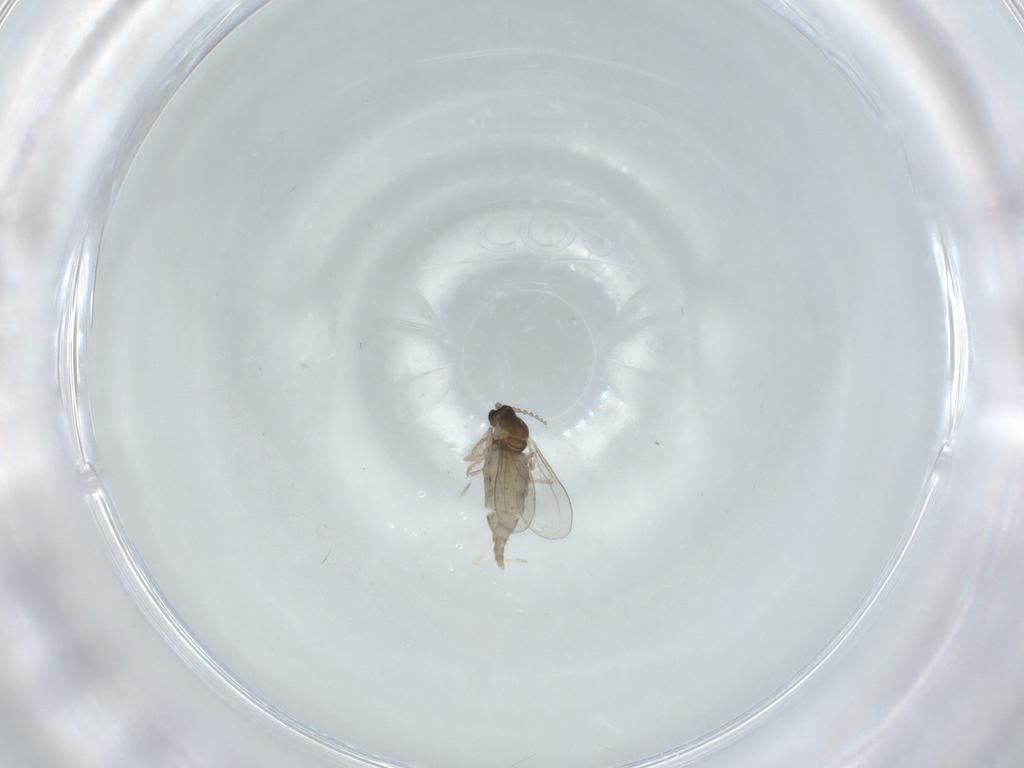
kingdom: Animalia
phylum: Arthropoda
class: Insecta
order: Diptera
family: Cecidomyiidae
